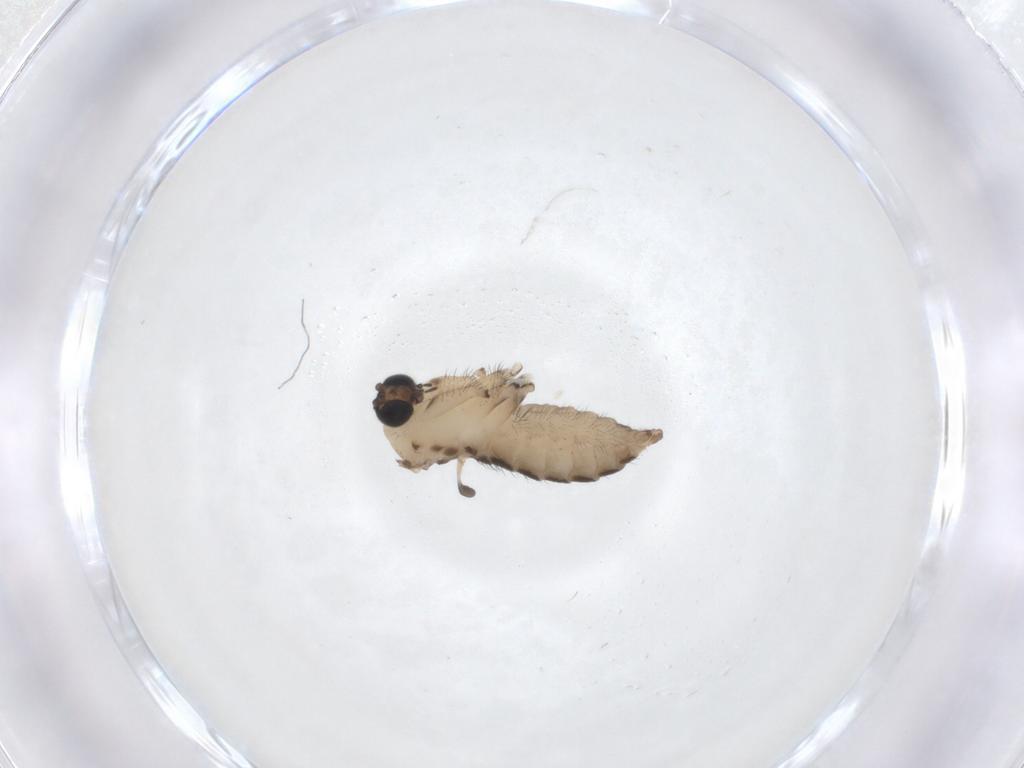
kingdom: Animalia
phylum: Arthropoda
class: Insecta
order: Diptera
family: Sciaridae
